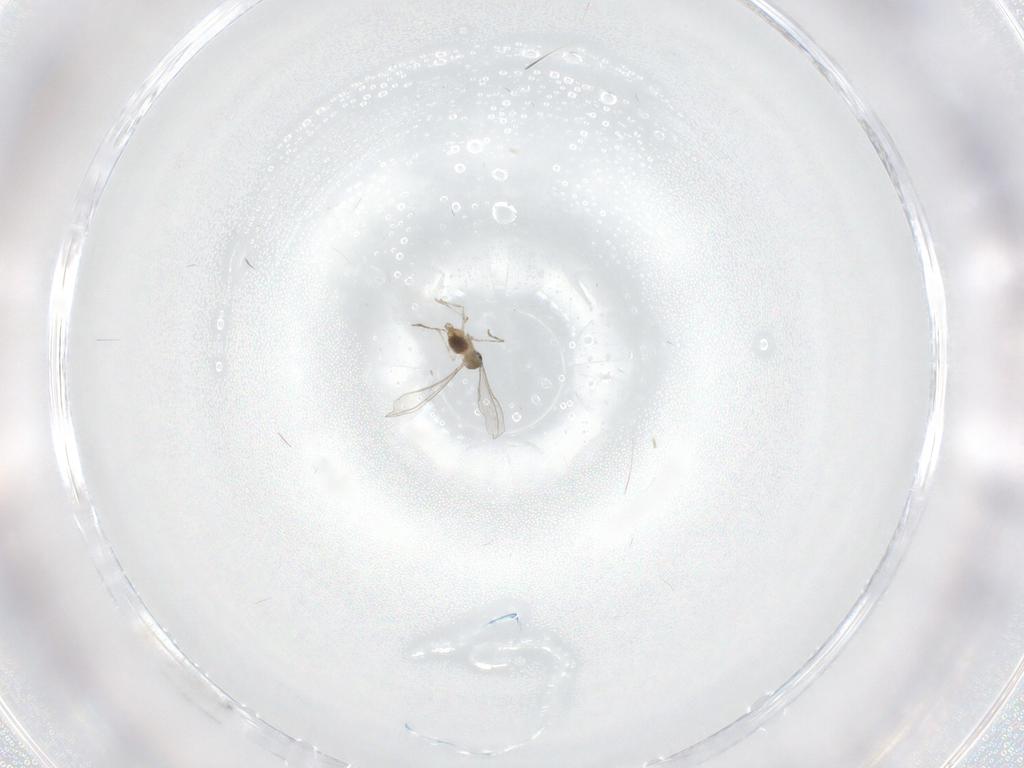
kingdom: Animalia
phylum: Arthropoda
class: Insecta
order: Diptera
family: Cecidomyiidae
